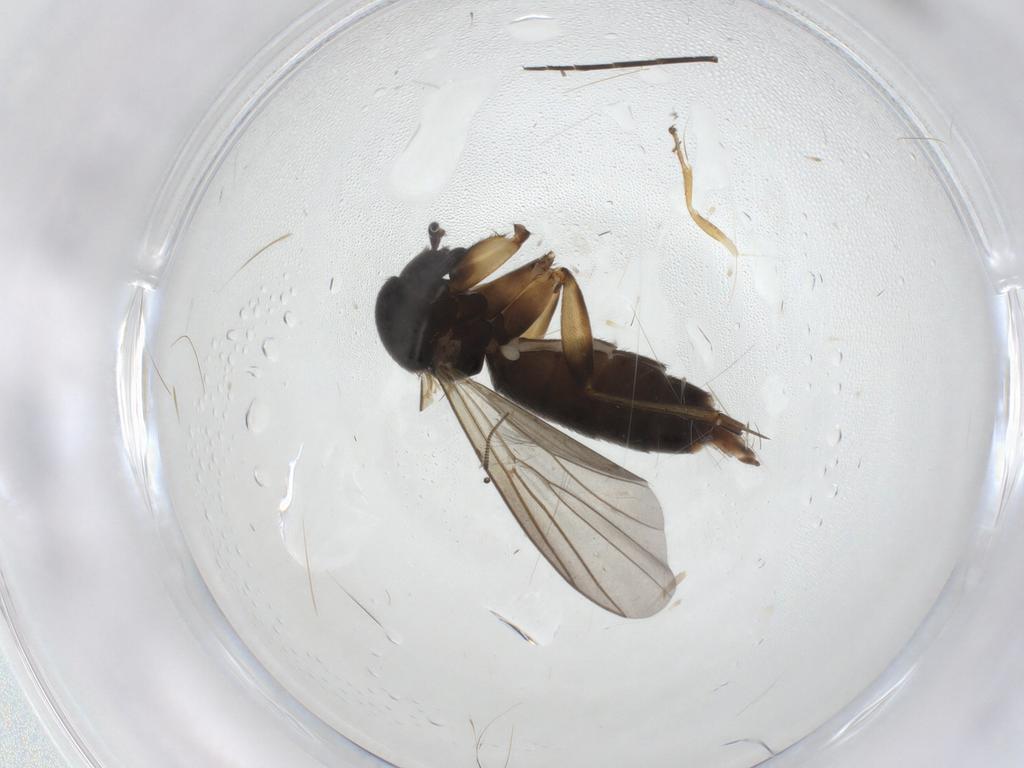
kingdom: Animalia
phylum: Arthropoda
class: Insecta
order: Diptera
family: Mycetophilidae
